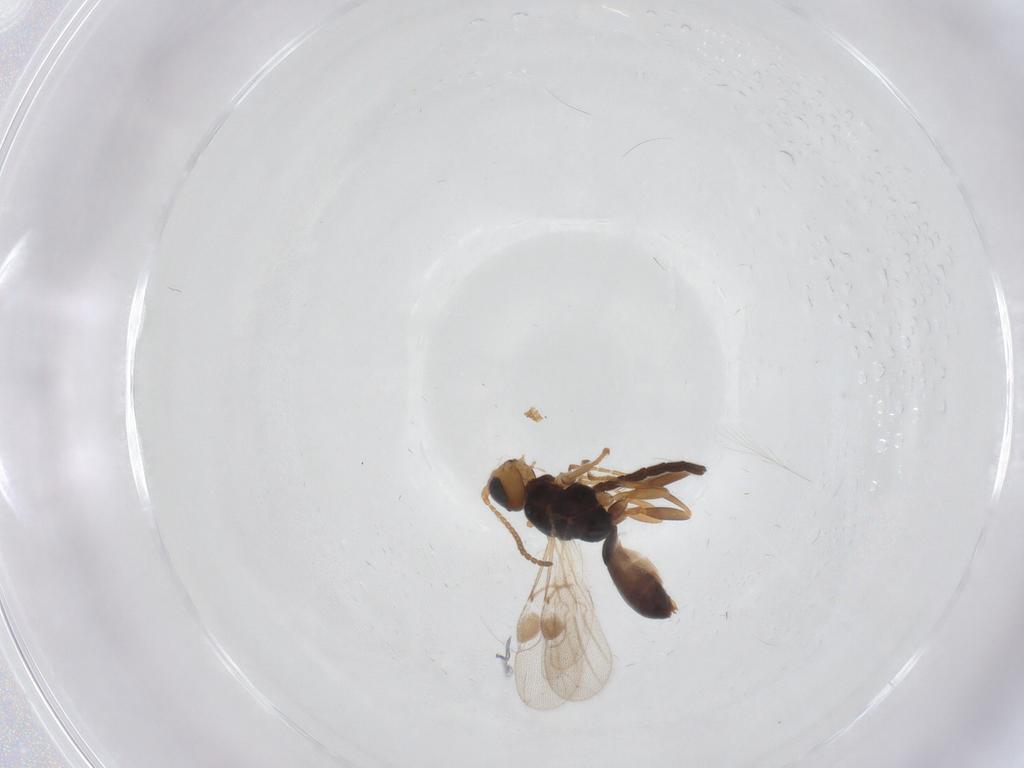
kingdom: Animalia
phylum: Arthropoda
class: Insecta
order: Hymenoptera
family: Braconidae
